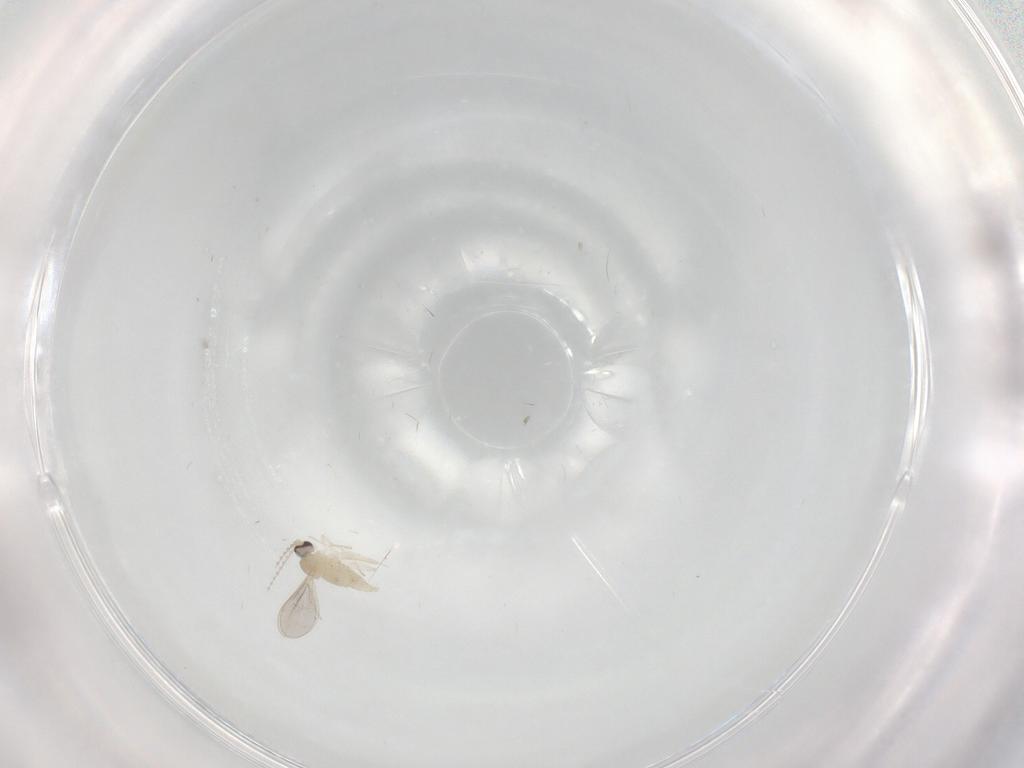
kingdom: Animalia
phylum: Arthropoda
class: Insecta
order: Diptera
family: Cecidomyiidae
